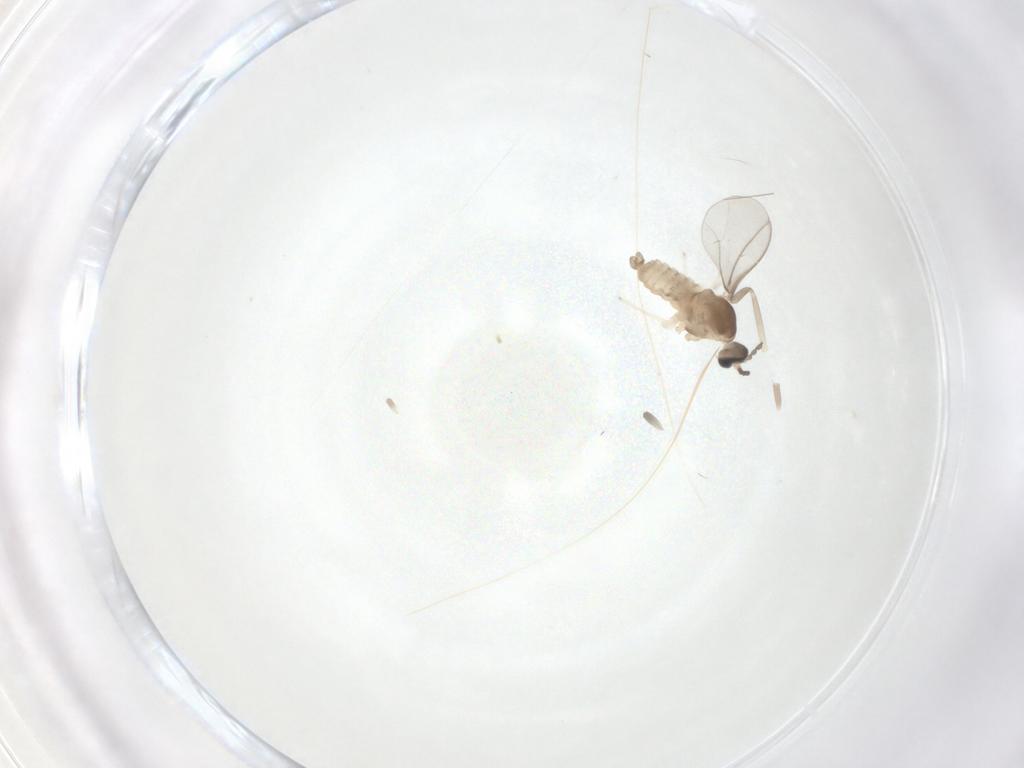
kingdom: Animalia
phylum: Arthropoda
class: Insecta
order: Diptera
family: Cecidomyiidae
